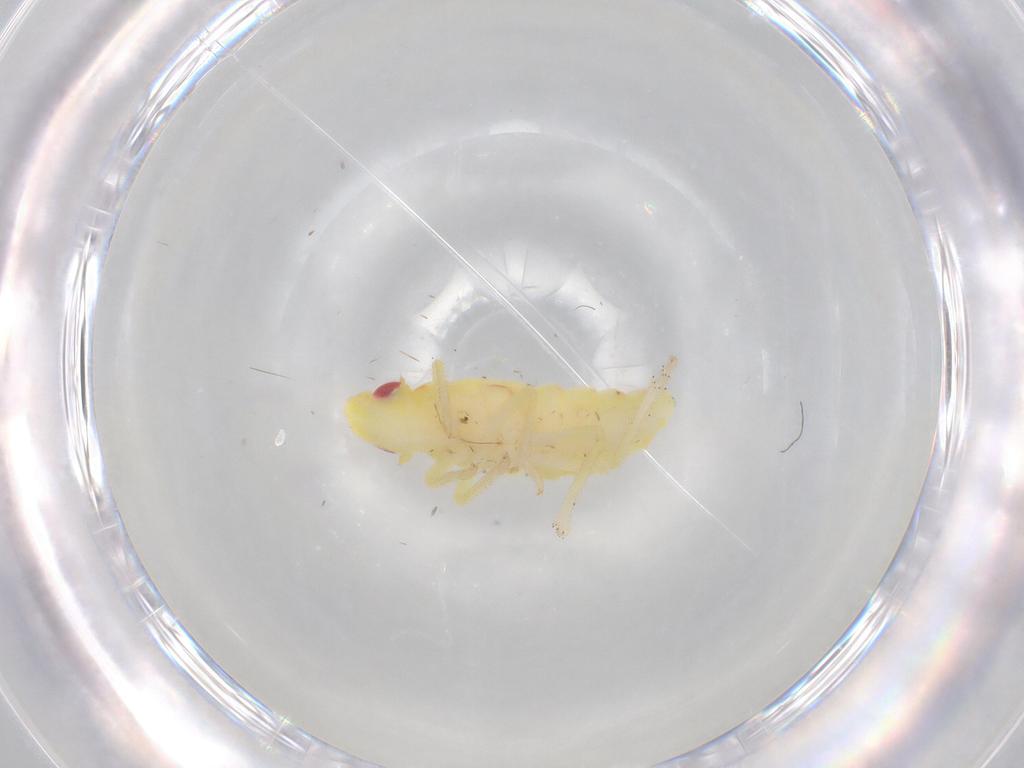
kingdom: Animalia
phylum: Arthropoda
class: Insecta
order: Hemiptera
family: Tropiduchidae
